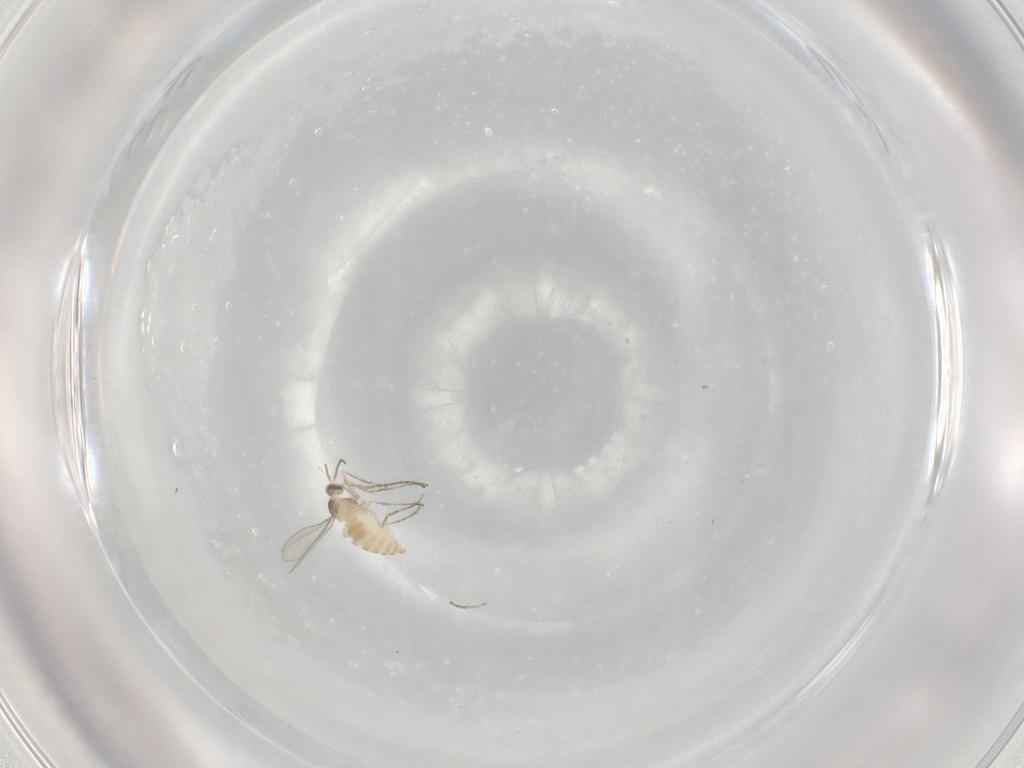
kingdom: Animalia
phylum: Arthropoda
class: Insecta
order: Diptera
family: Cecidomyiidae
